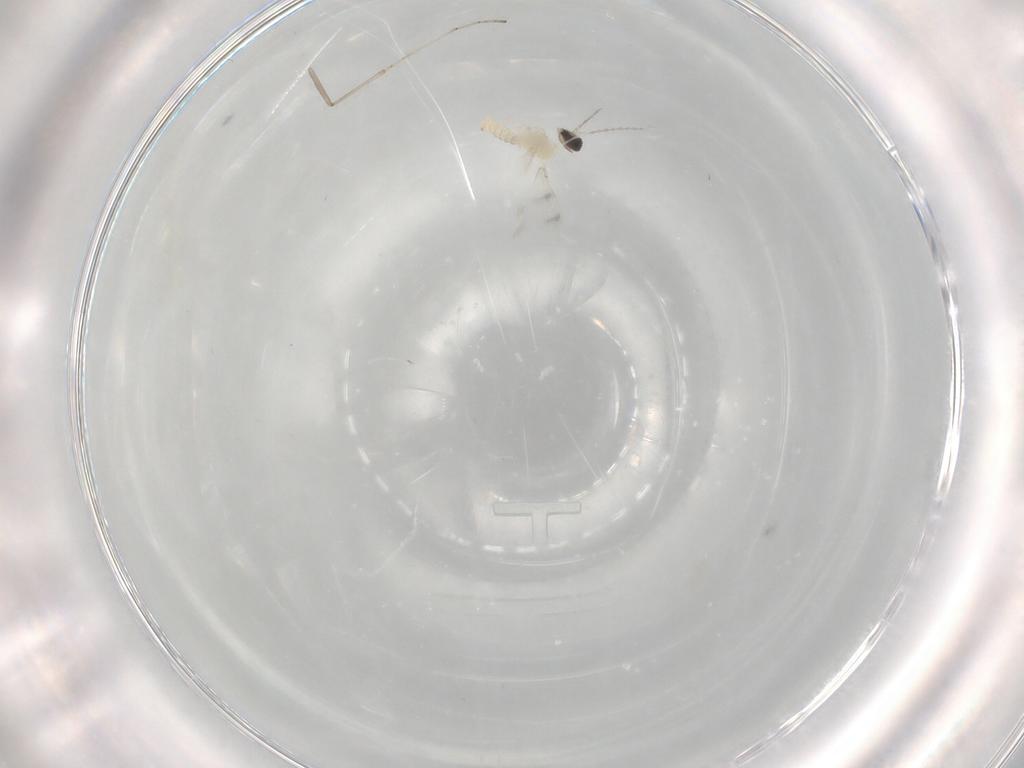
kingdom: Animalia
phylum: Arthropoda
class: Insecta
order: Diptera
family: Cecidomyiidae
